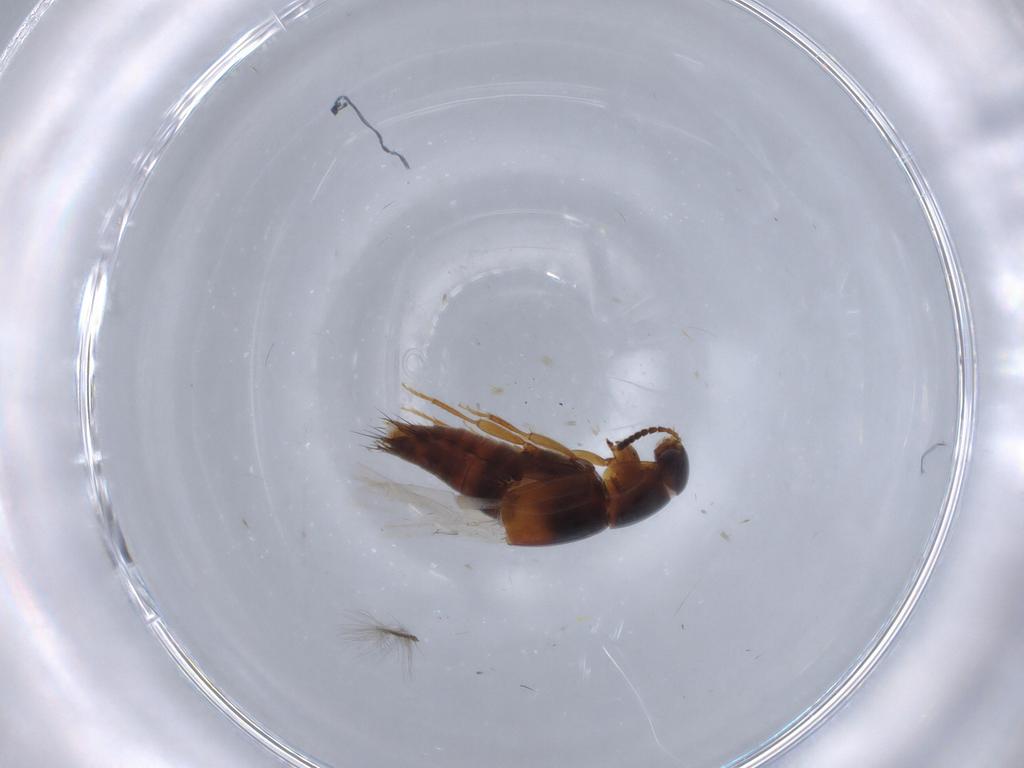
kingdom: Animalia
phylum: Arthropoda
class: Insecta
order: Coleoptera
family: Staphylinidae
